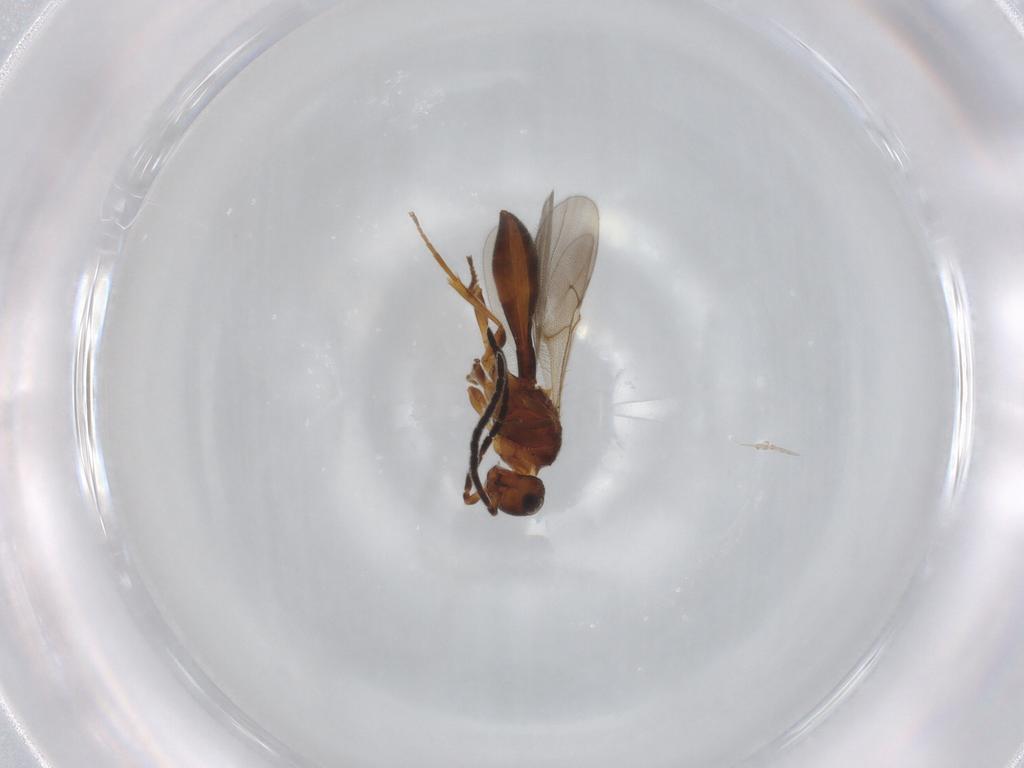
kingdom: Animalia
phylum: Arthropoda
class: Insecta
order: Hymenoptera
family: Scelionidae
